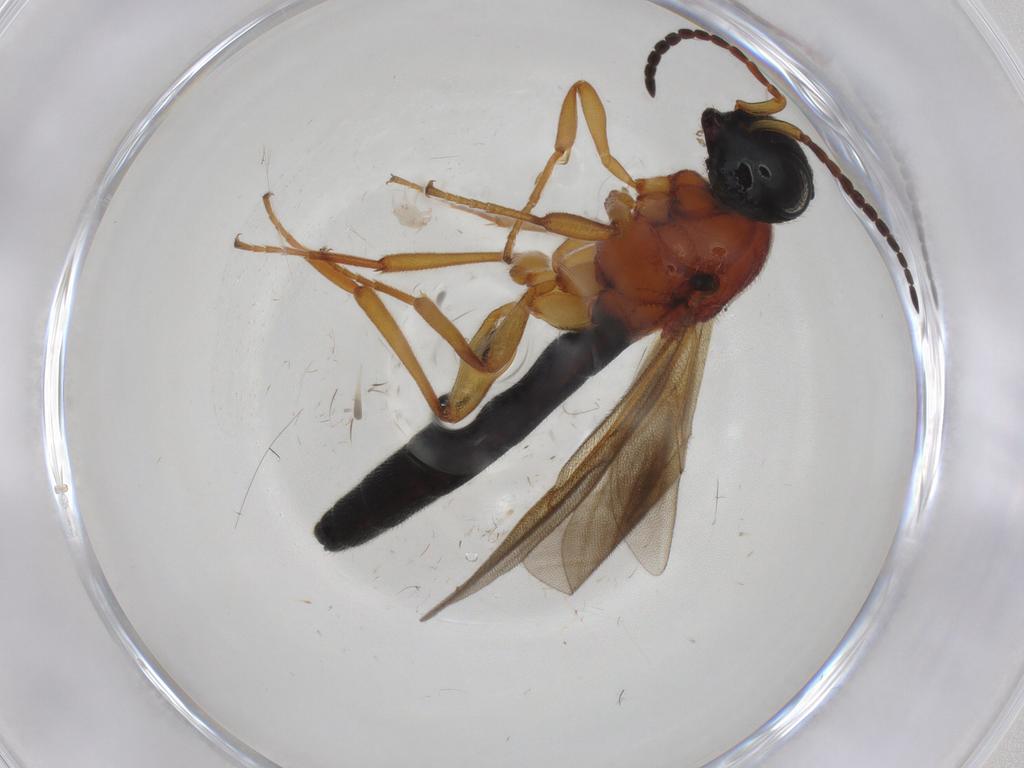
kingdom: Animalia
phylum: Arthropoda
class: Insecta
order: Hymenoptera
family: Scelionidae
